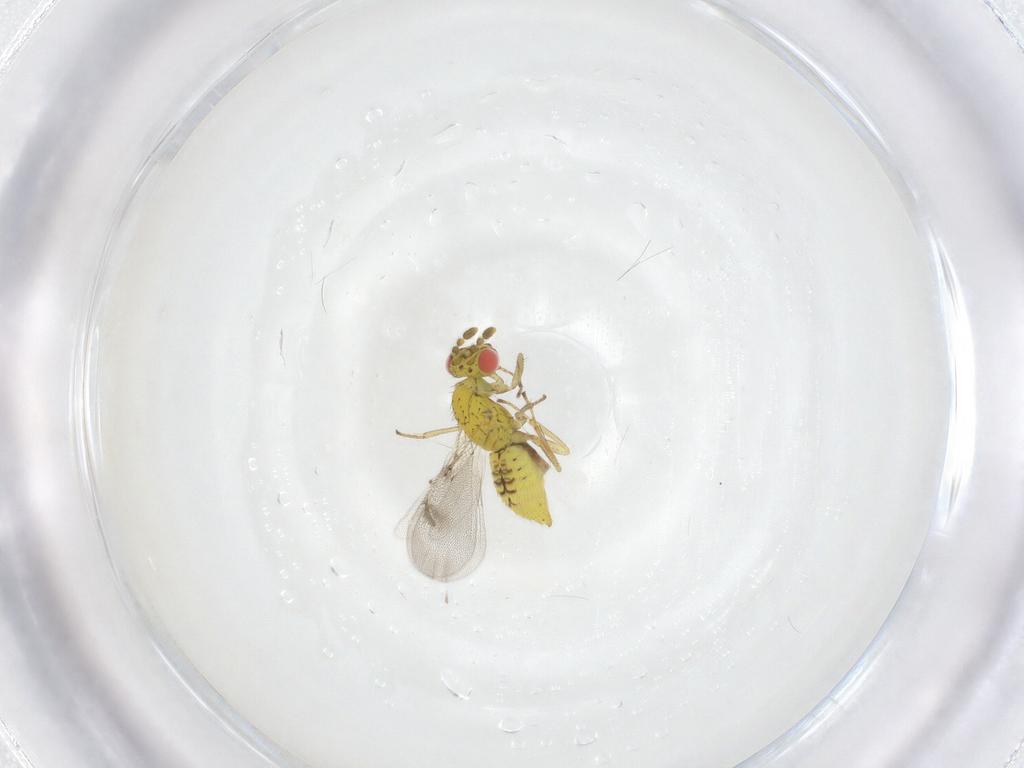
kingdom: Animalia
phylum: Arthropoda
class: Insecta
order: Hymenoptera
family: Eulophidae
